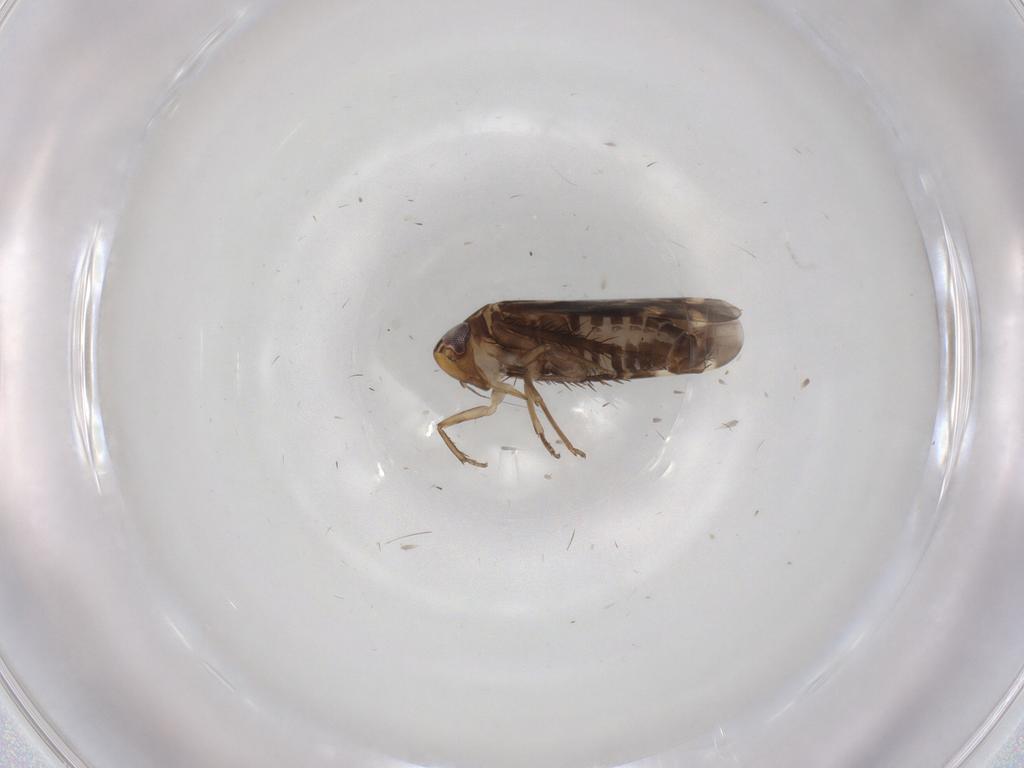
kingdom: Animalia
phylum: Arthropoda
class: Insecta
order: Hemiptera
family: Cicadellidae
